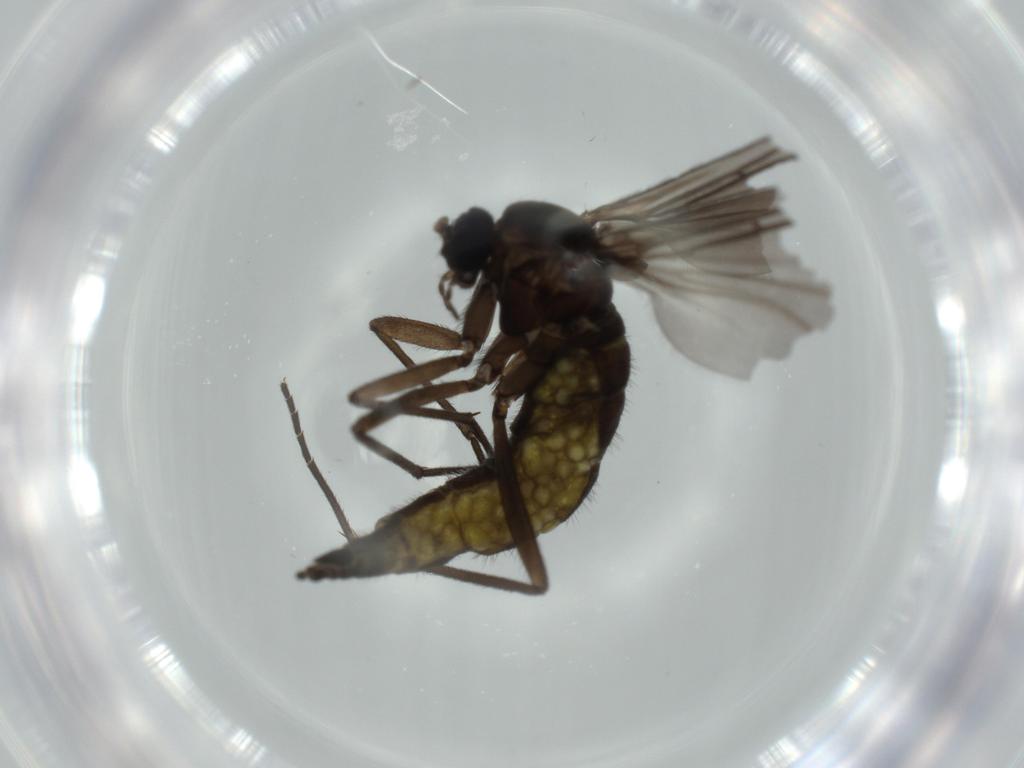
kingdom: Animalia
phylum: Arthropoda
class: Insecta
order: Diptera
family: Sciaridae
